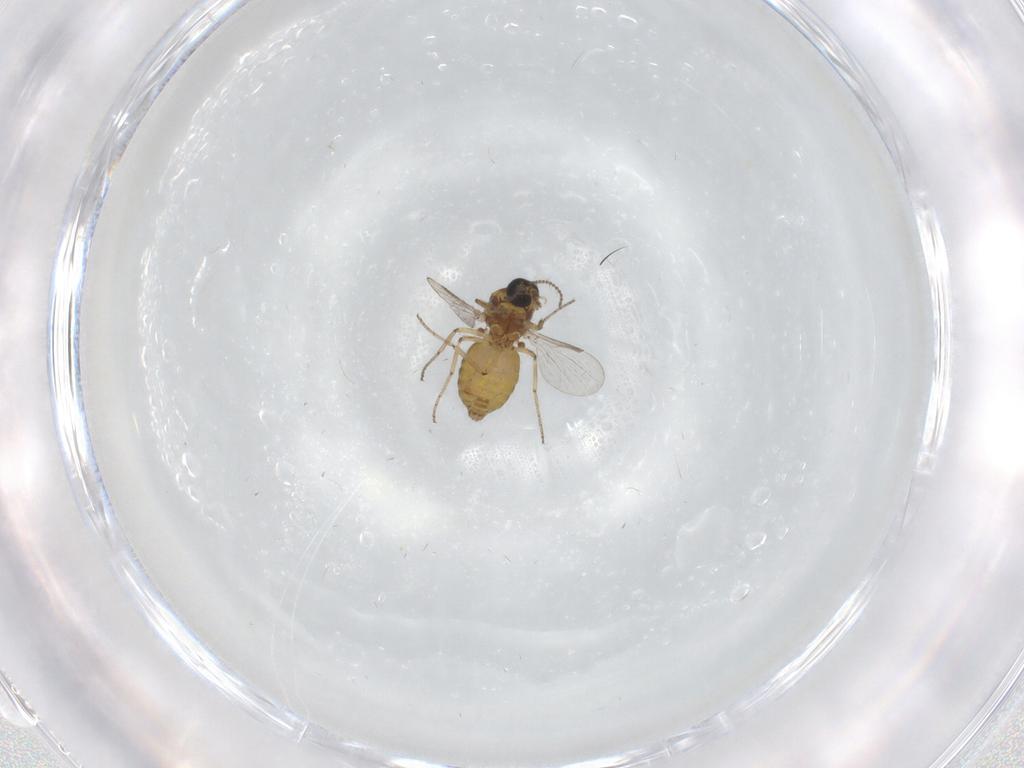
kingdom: Animalia
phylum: Arthropoda
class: Insecta
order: Diptera
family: Ceratopogonidae
